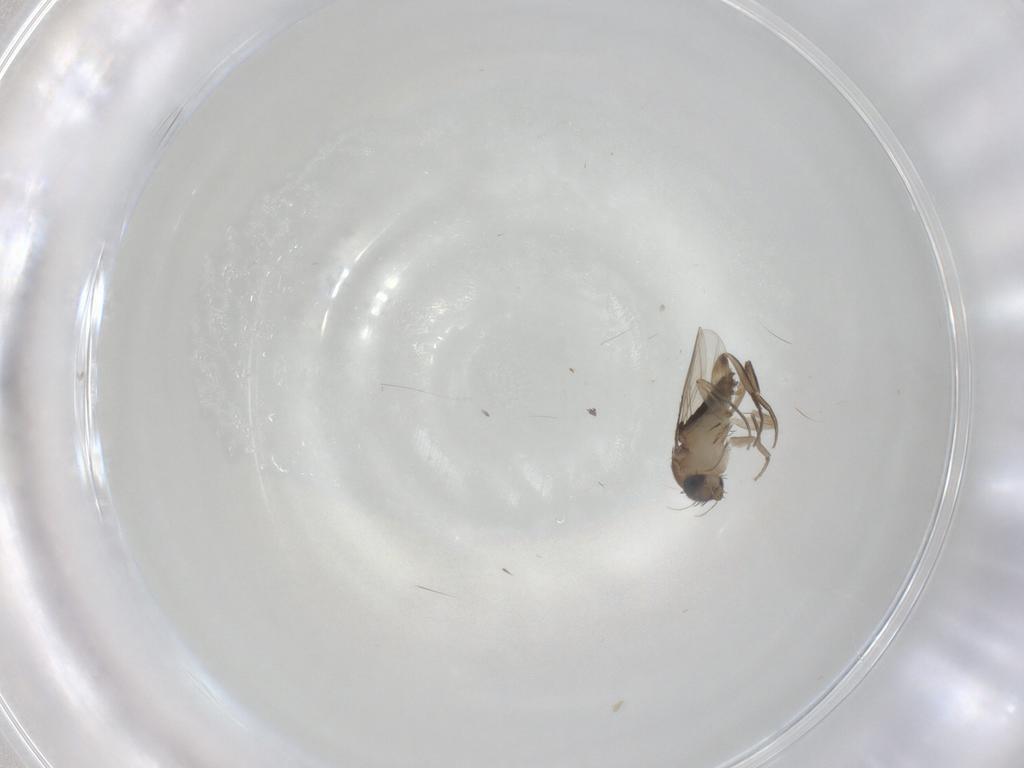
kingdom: Animalia
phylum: Arthropoda
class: Insecta
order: Diptera
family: Phoridae
